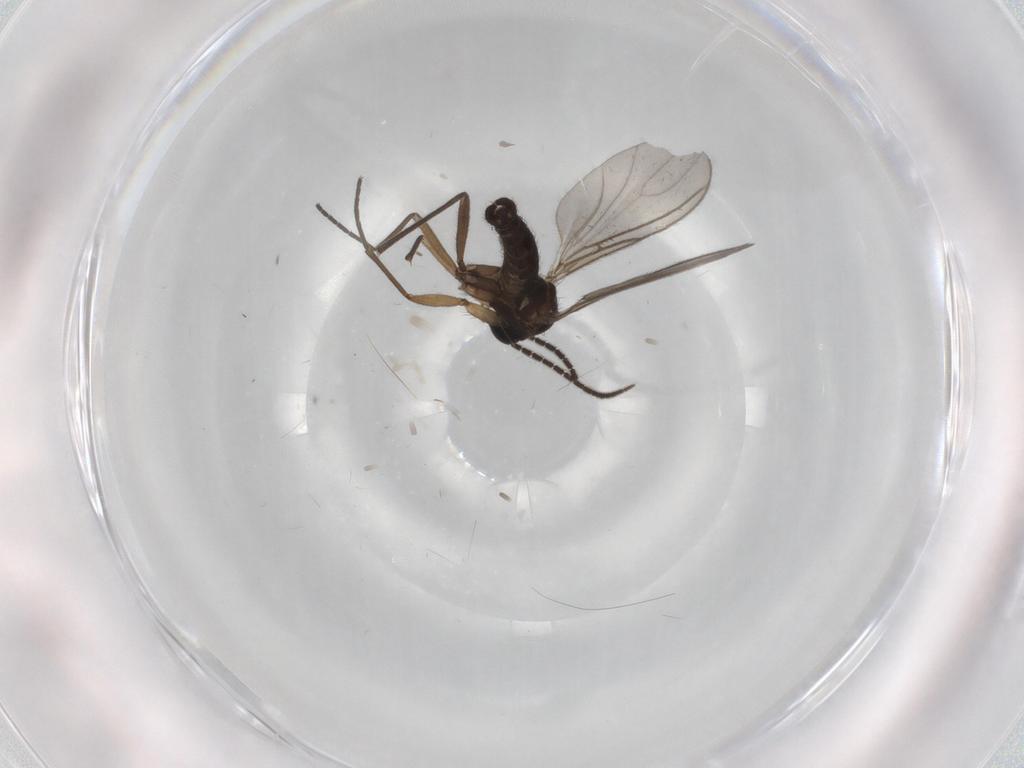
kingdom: Animalia
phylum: Arthropoda
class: Insecta
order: Diptera
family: Sciaridae
